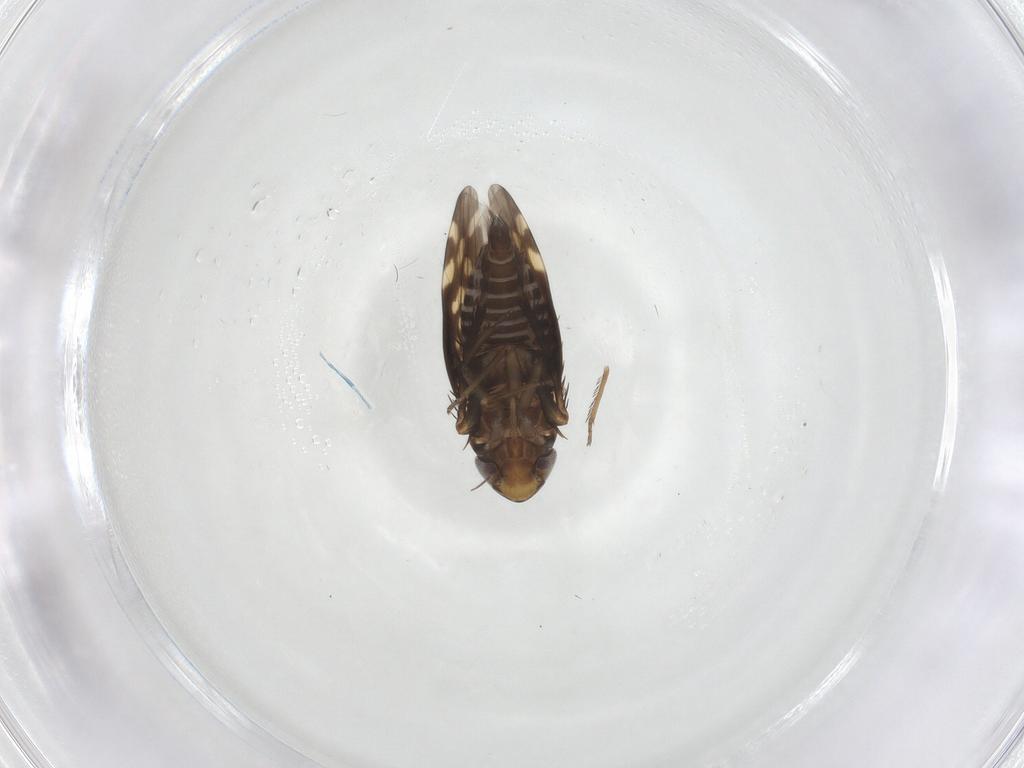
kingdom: Animalia
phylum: Arthropoda
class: Insecta
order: Hemiptera
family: Cicadellidae
